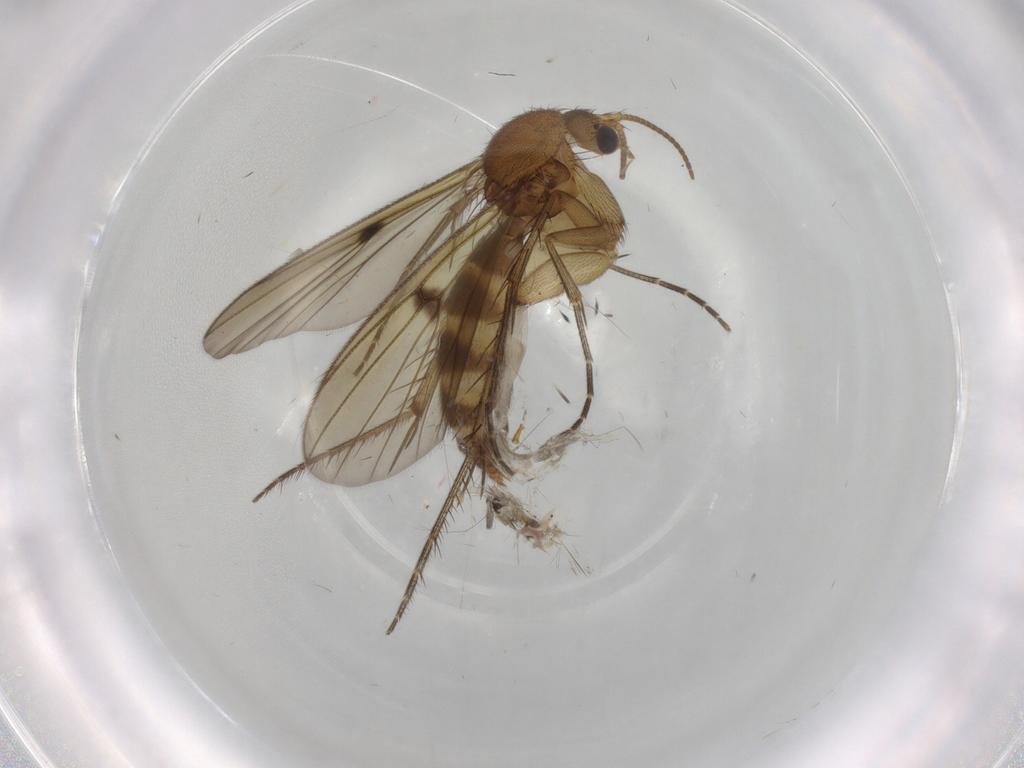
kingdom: Animalia
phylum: Arthropoda
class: Insecta
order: Diptera
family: Sciaridae
